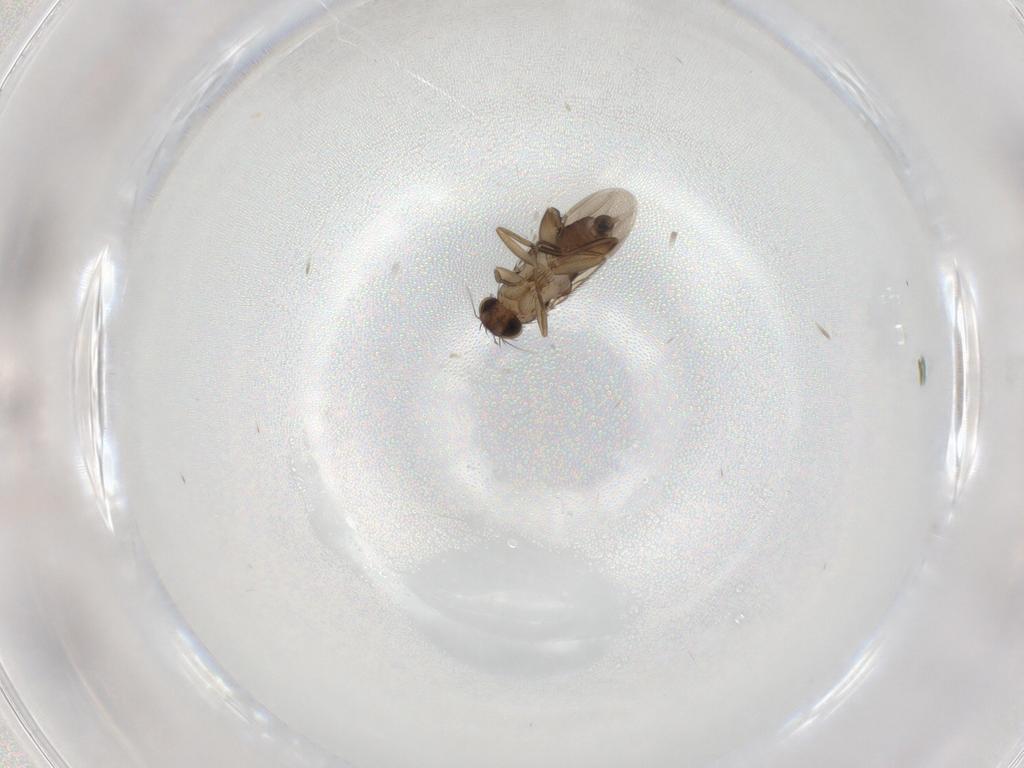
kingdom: Animalia
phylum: Arthropoda
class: Insecta
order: Diptera
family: Phoridae
